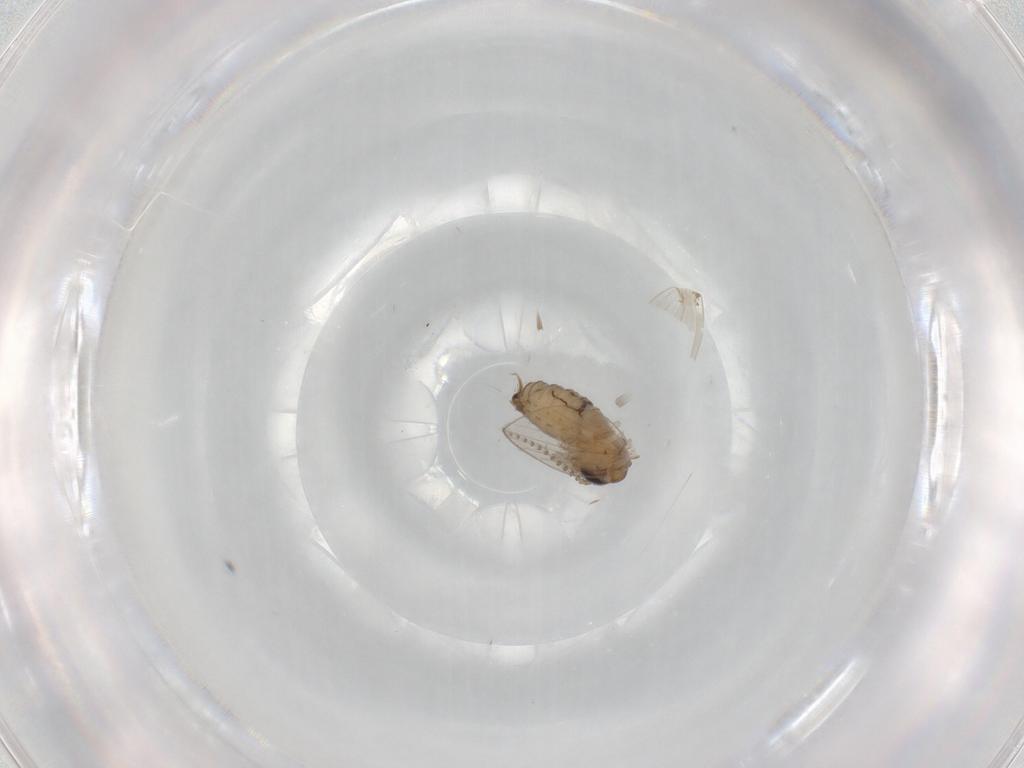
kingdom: Animalia
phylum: Arthropoda
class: Insecta
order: Diptera
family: Psychodidae
